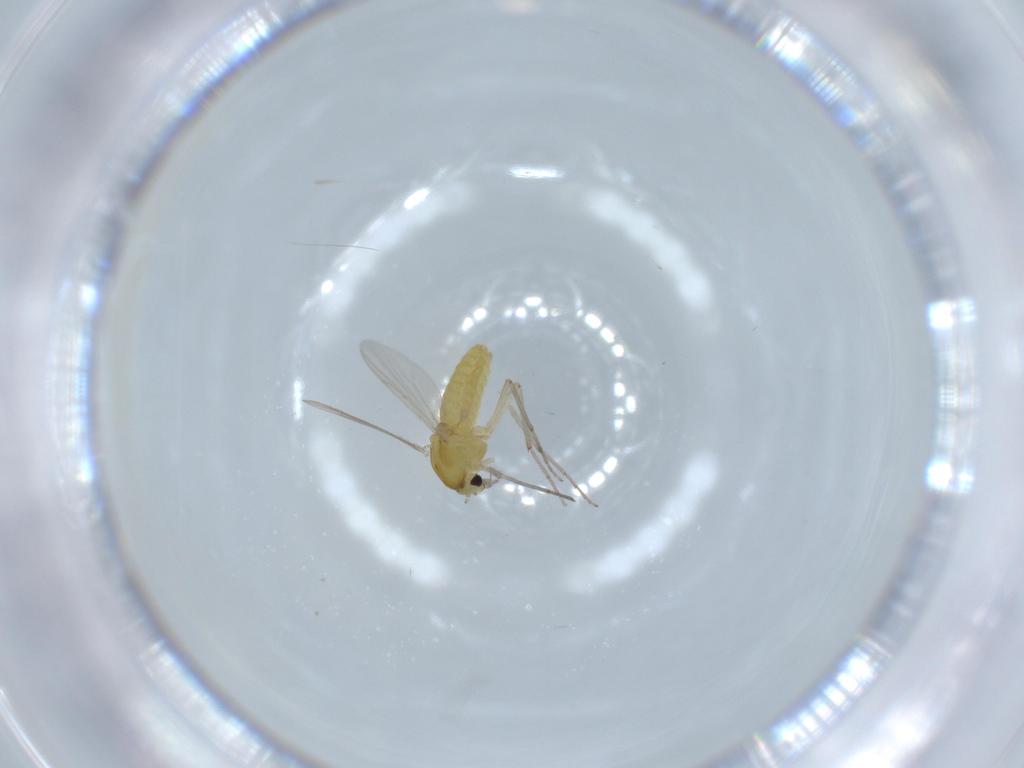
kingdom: Animalia
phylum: Arthropoda
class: Insecta
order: Diptera
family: Chironomidae
